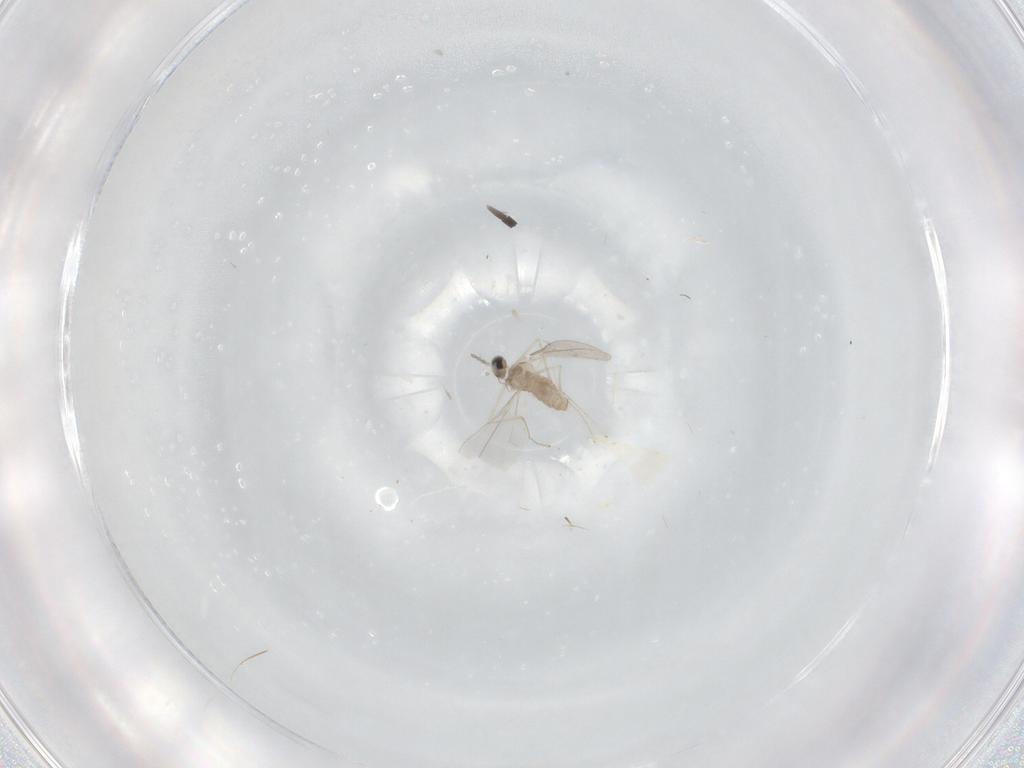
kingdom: Animalia
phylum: Arthropoda
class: Insecta
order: Diptera
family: Cecidomyiidae
